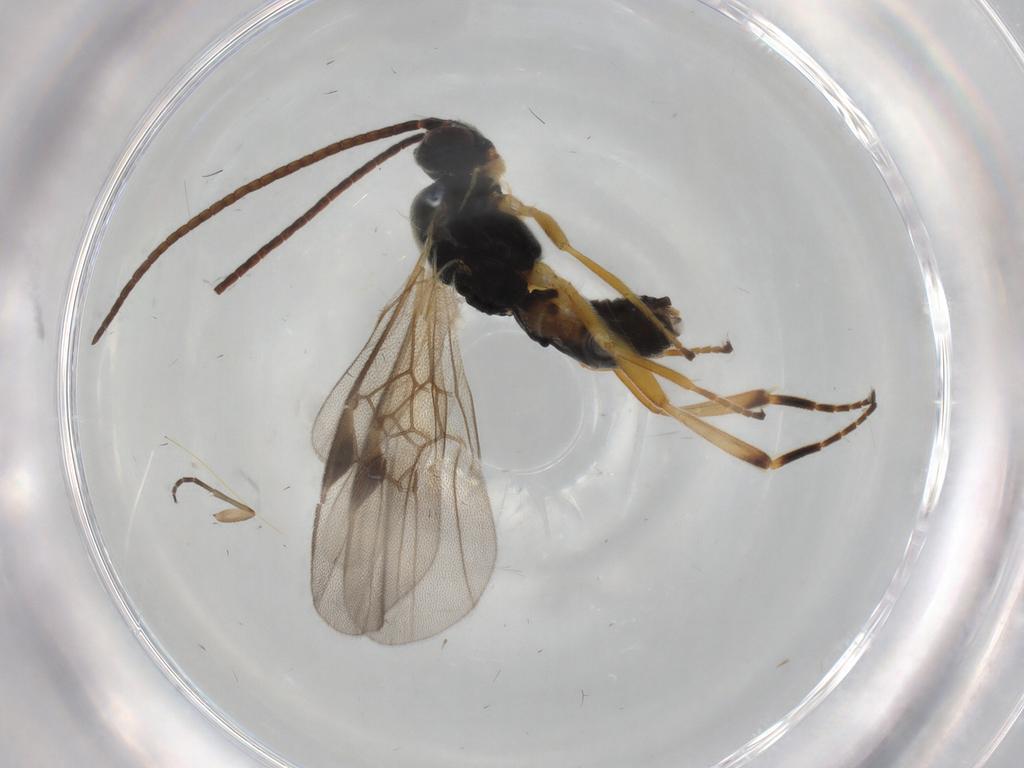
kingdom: Animalia
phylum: Arthropoda
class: Insecta
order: Hymenoptera
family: Braconidae
